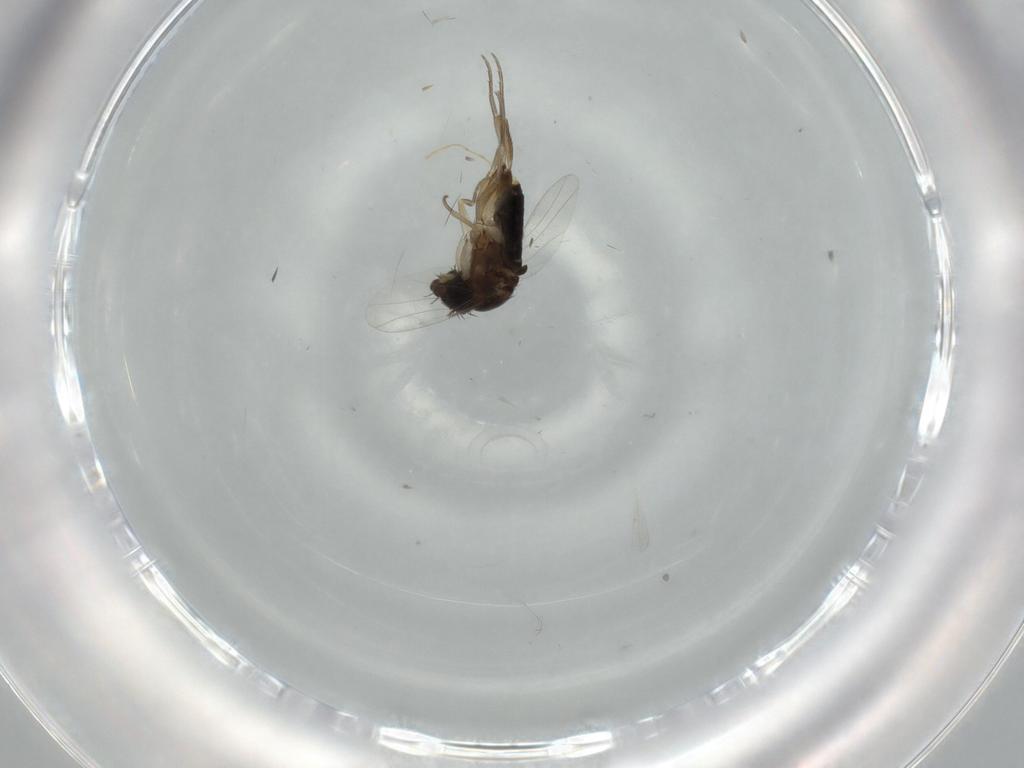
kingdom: Animalia
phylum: Arthropoda
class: Insecta
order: Diptera
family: Phoridae
